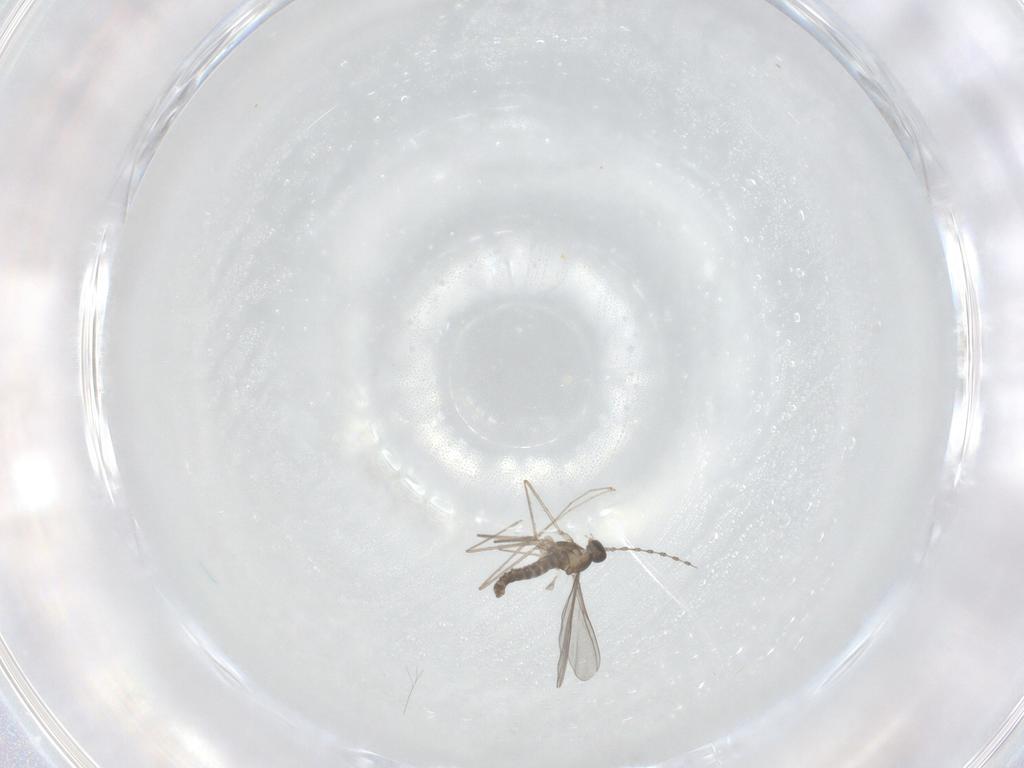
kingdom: Animalia
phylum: Arthropoda
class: Insecta
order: Diptera
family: Cecidomyiidae
